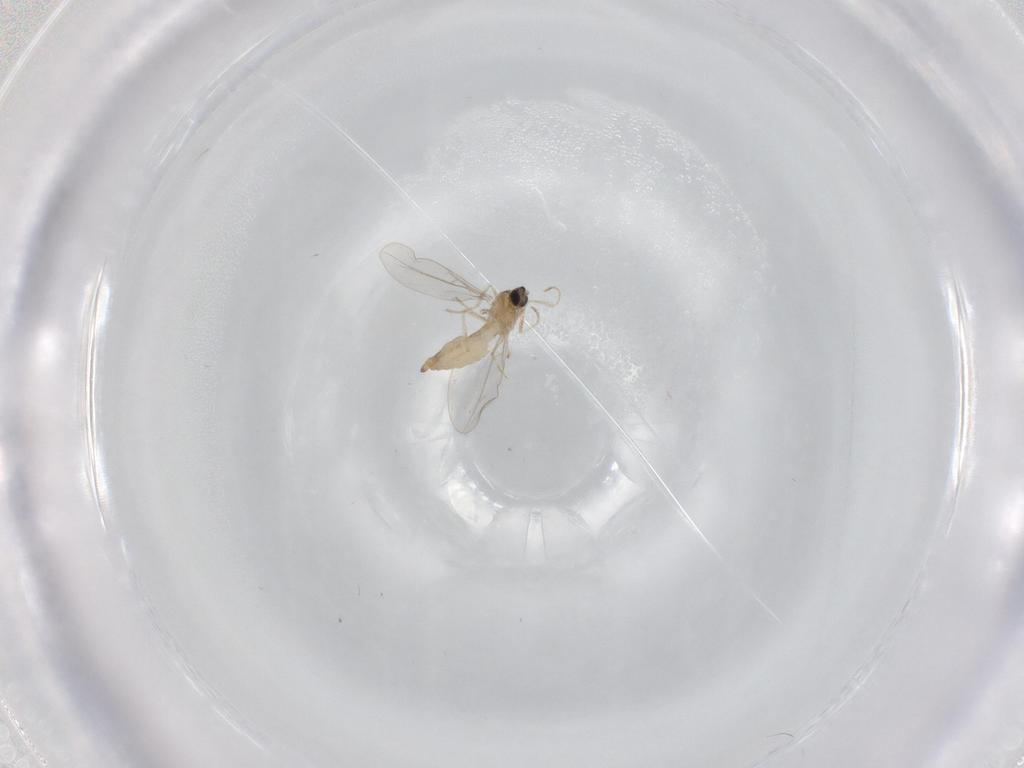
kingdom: Animalia
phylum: Arthropoda
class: Insecta
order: Diptera
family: Cecidomyiidae
